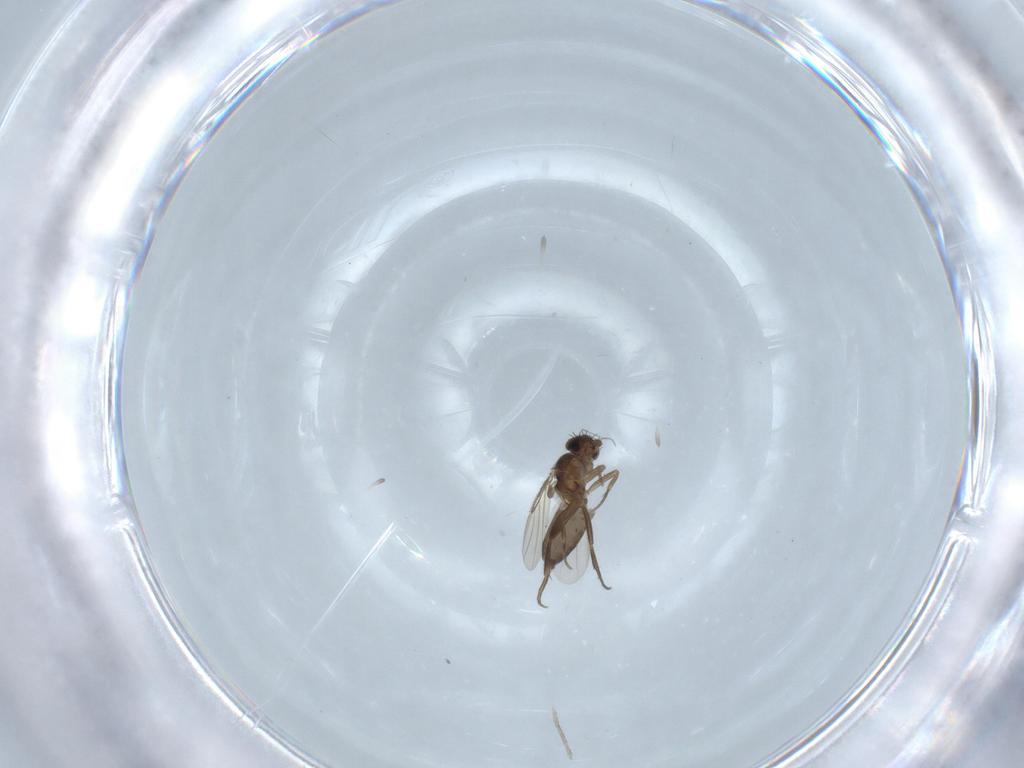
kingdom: Animalia
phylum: Arthropoda
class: Insecta
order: Diptera
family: Phoridae
